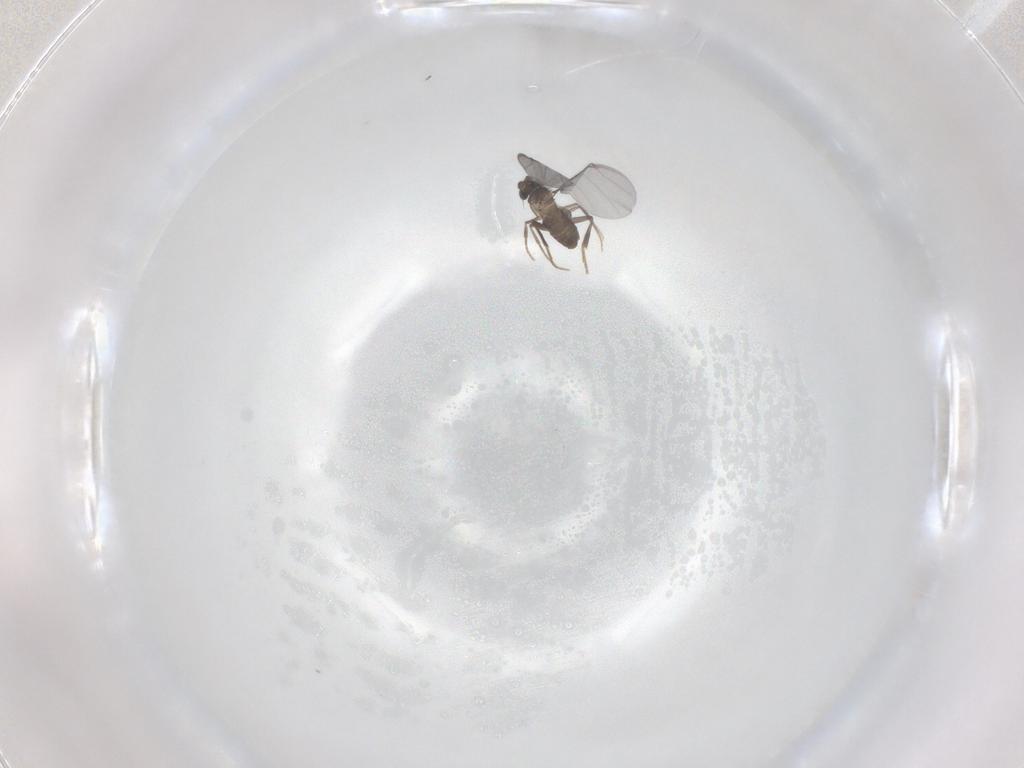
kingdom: Animalia
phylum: Arthropoda
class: Insecta
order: Diptera
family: Phoridae
